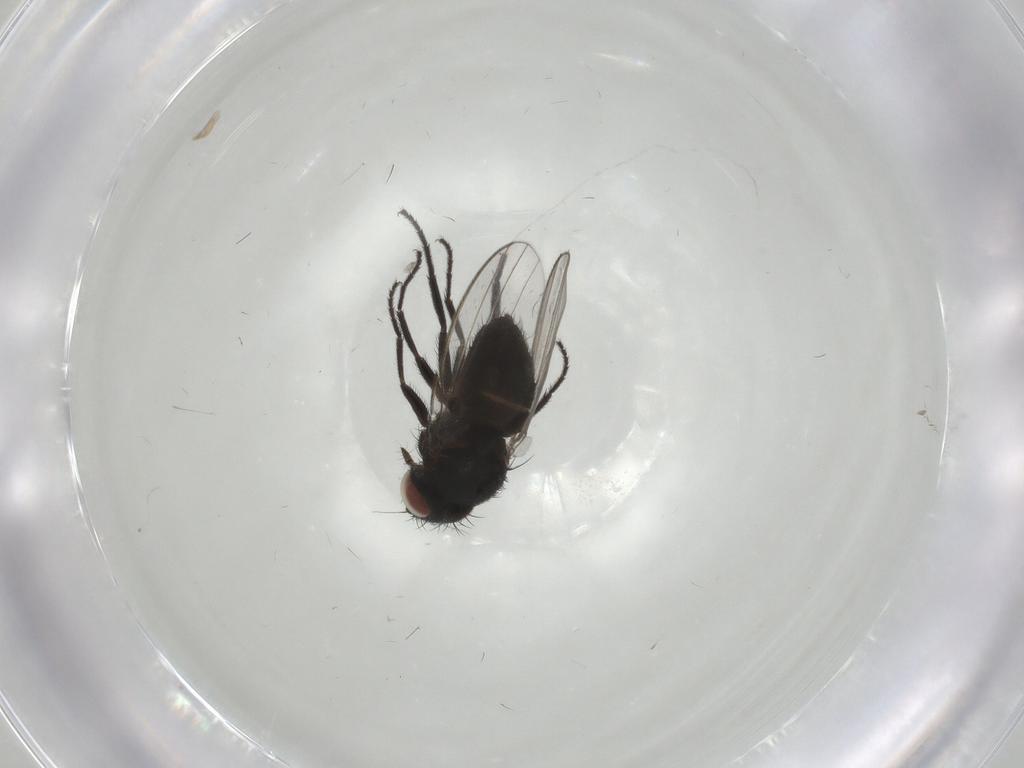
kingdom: Animalia
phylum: Arthropoda
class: Insecta
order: Diptera
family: Milichiidae
